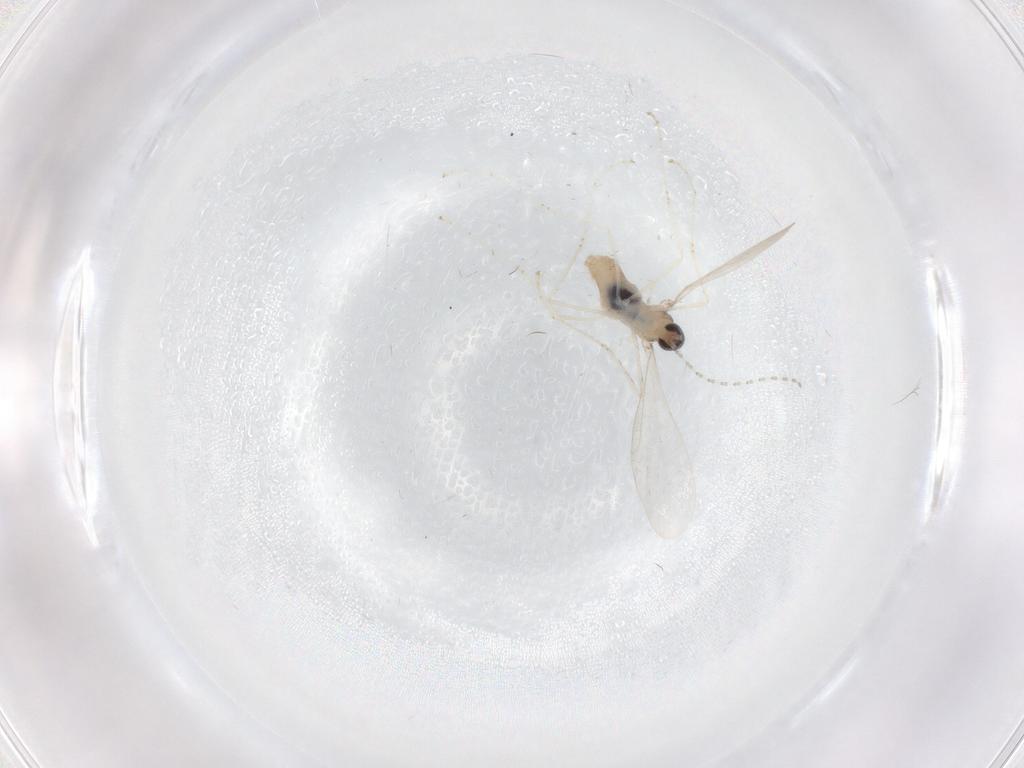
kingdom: Animalia
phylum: Arthropoda
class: Insecta
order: Diptera
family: Cecidomyiidae
